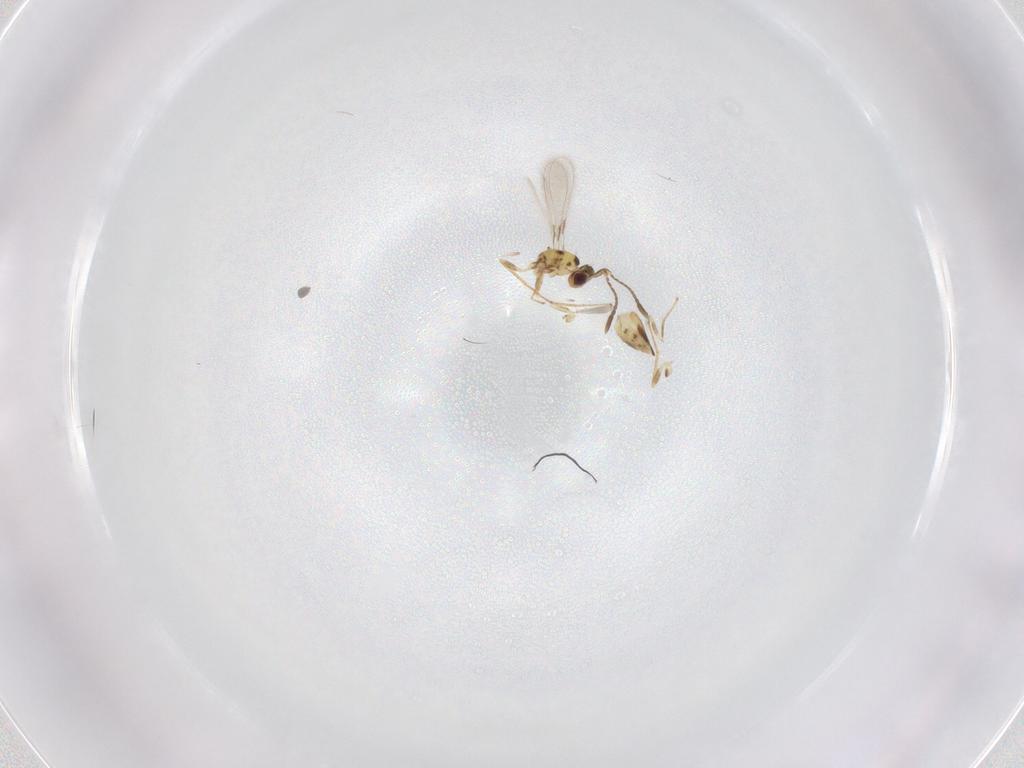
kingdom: Animalia
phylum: Arthropoda
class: Insecta
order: Hymenoptera
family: Mymaridae
